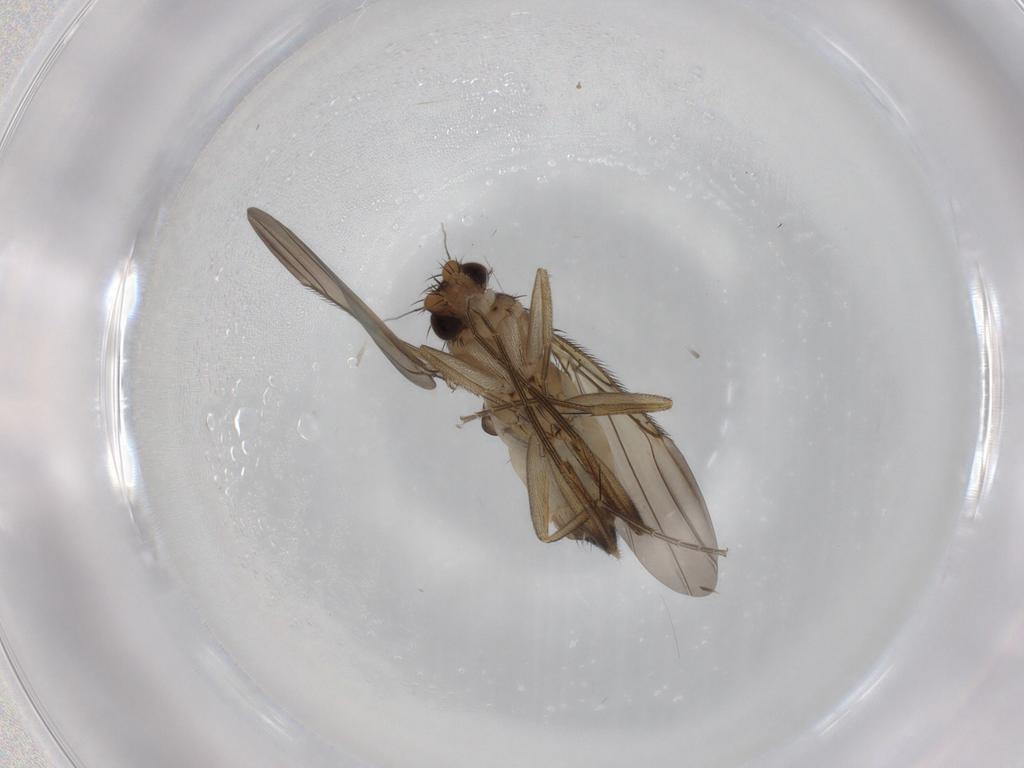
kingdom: Animalia
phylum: Arthropoda
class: Insecta
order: Diptera
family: Phoridae
